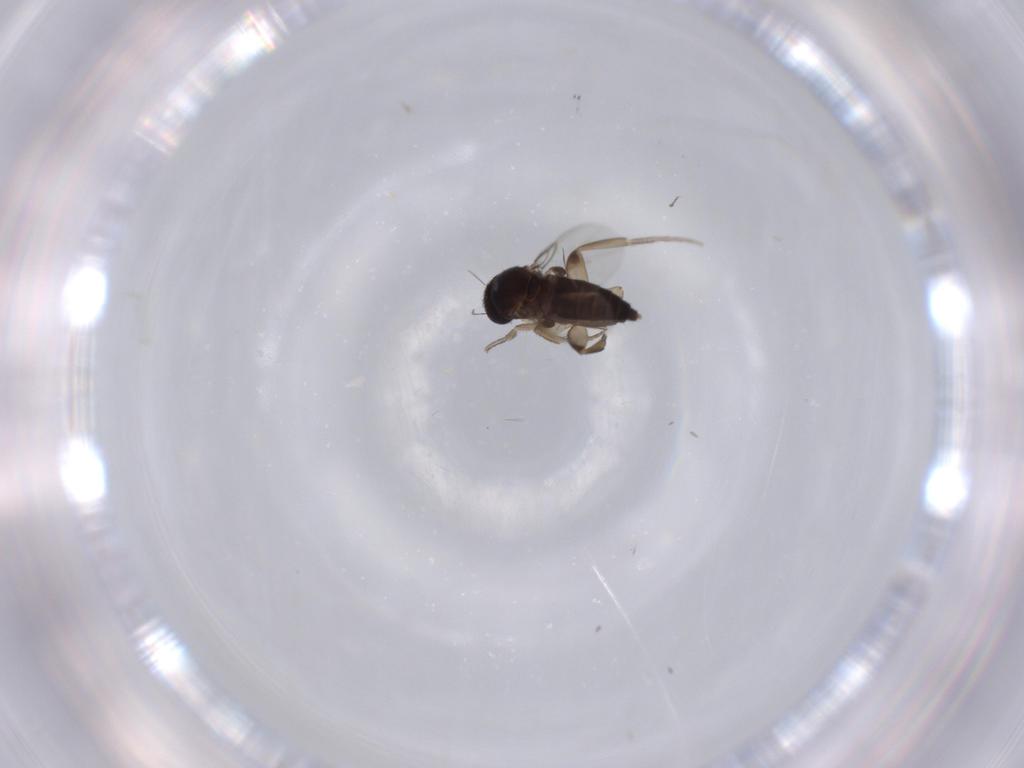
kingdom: Animalia
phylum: Arthropoda
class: Insecta
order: Diptera
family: Phoridae
